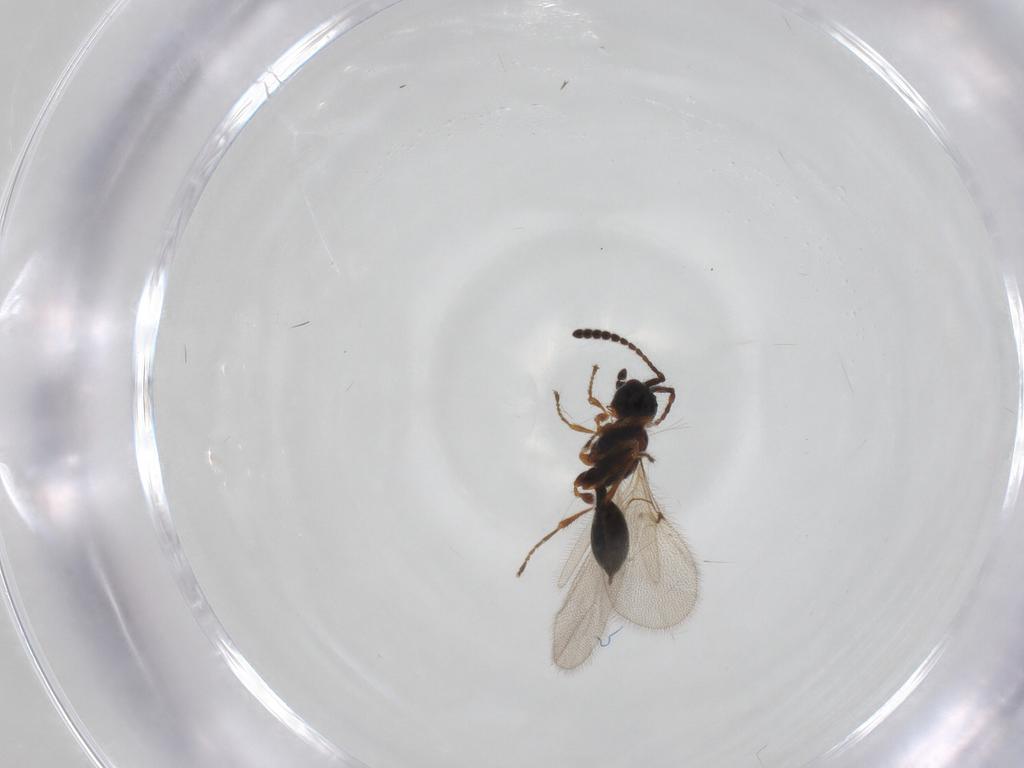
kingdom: Animalia
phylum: Arthropoda
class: Insecta
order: Hymenoptera
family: Diapriidae
